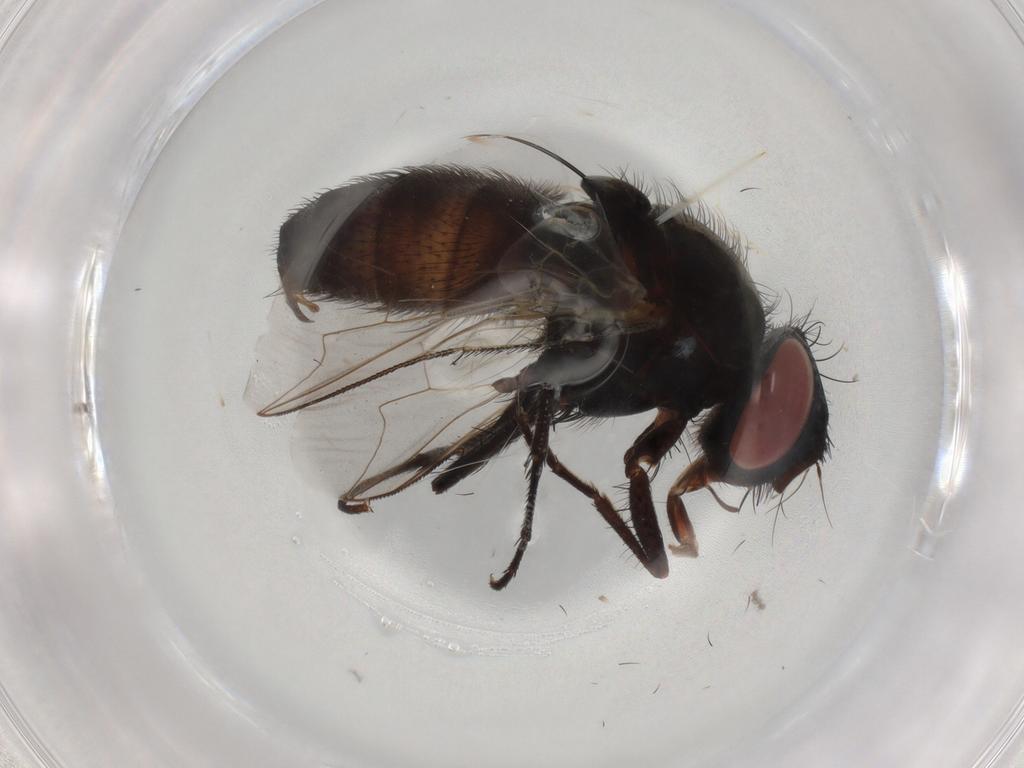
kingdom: Animalia
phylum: Arthropoda
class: Insecta
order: Diptera
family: Sarcophagidae
